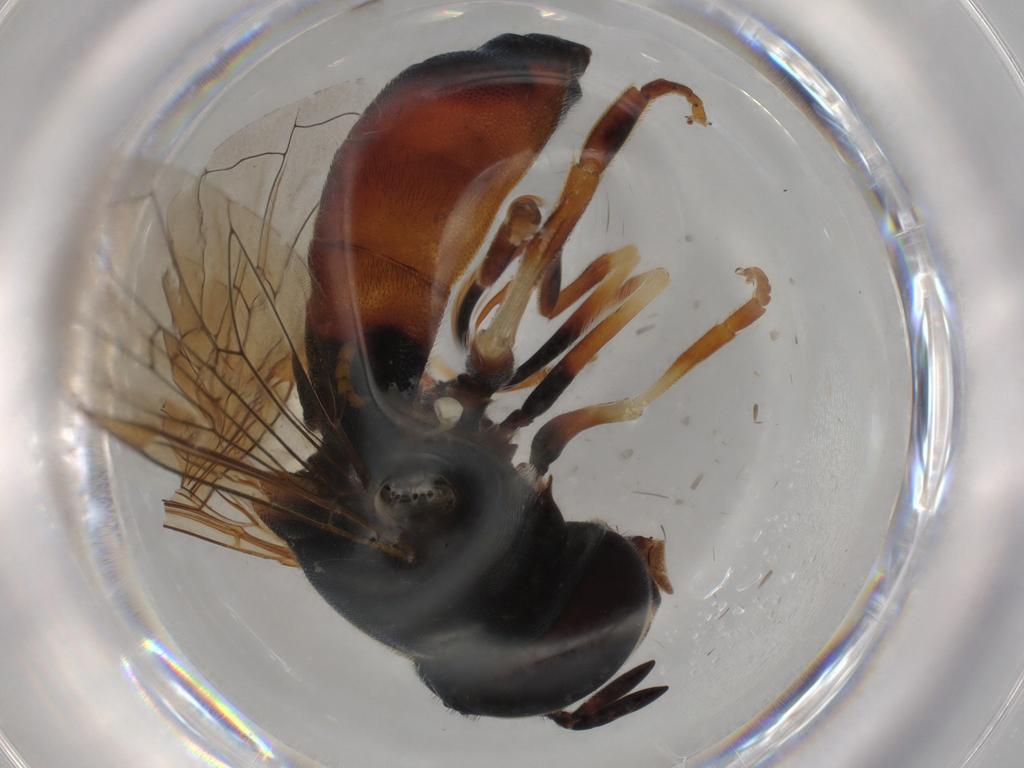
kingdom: Animalia
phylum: Arthropoda
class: Insecta
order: Diptera
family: Syrphidae
